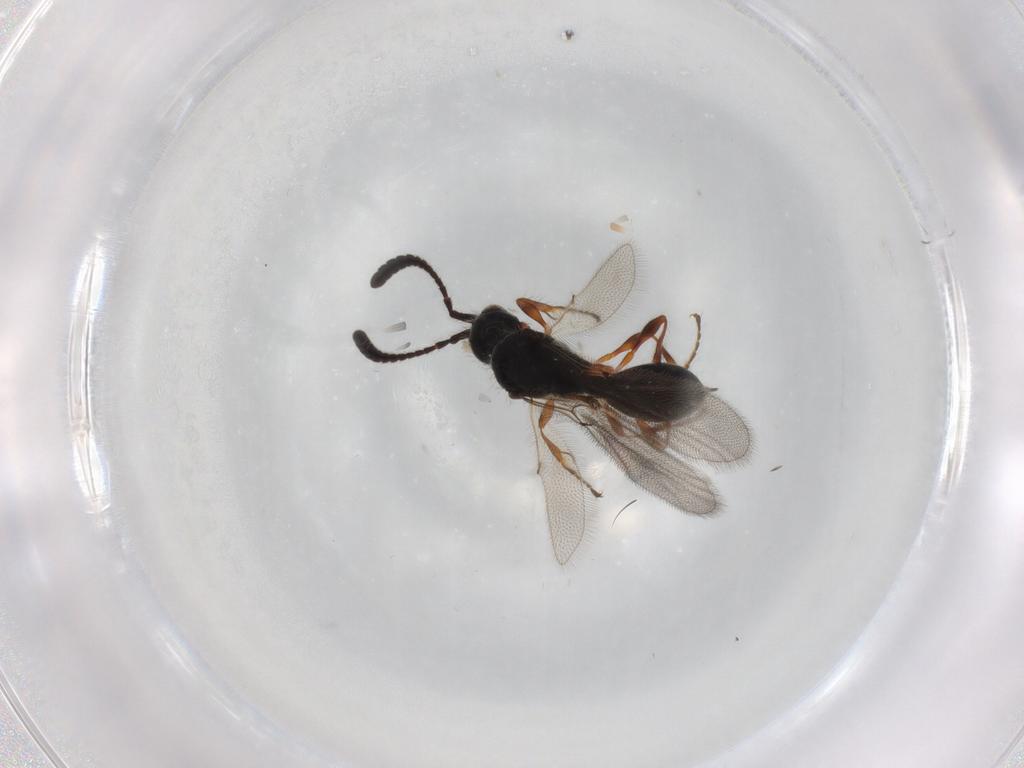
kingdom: Animalia
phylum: Arthropoda
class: Insecta
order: Hymenoptera
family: Diapriidae
